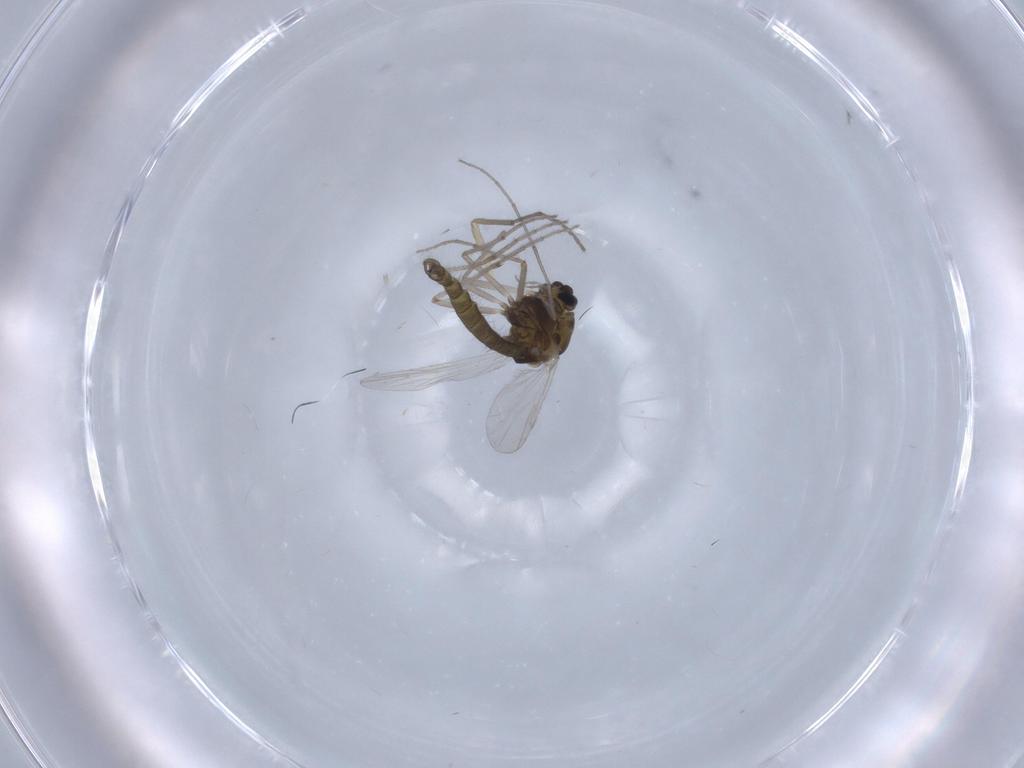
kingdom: Animalia
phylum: Arthropoda
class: Insecta
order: Diptera
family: Chironomidae
